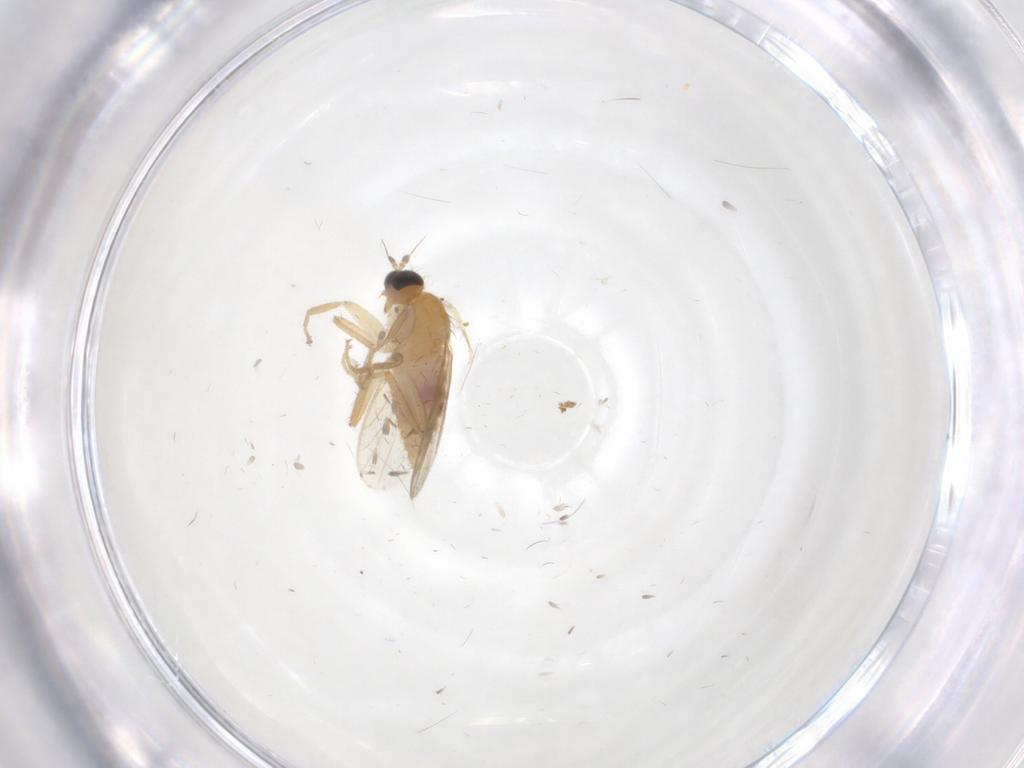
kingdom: Animalia
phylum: Arthropoda
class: Insecta
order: Diptera
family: Hybotidae
